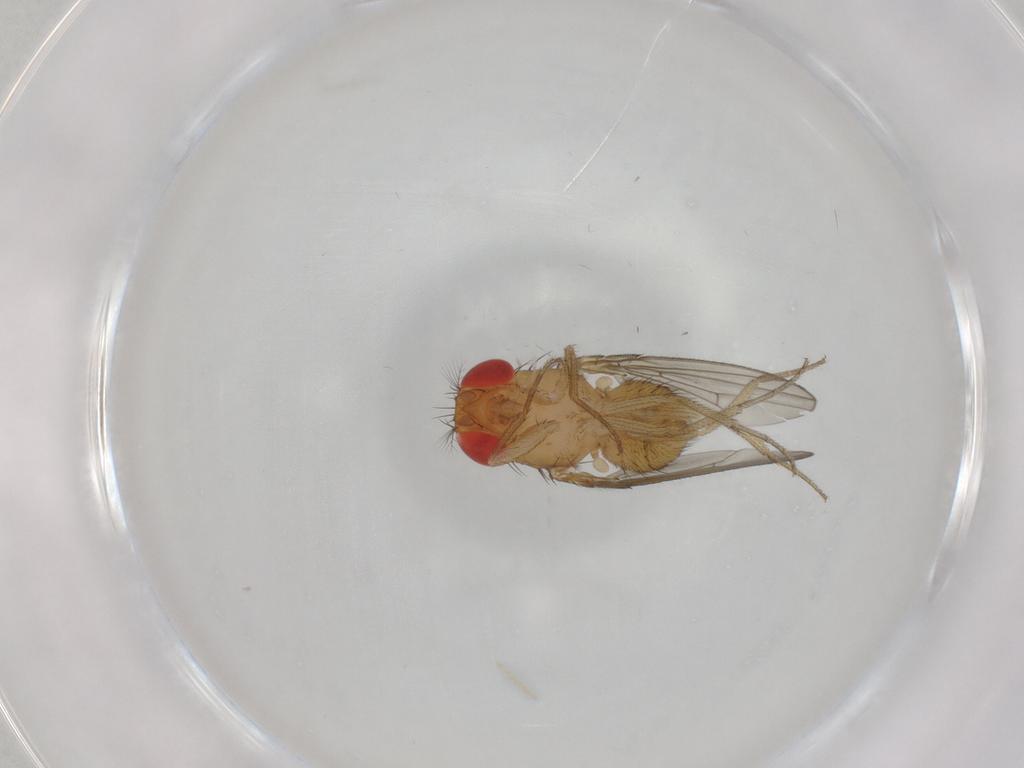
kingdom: Animalia
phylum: Arthropoda
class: Insecta
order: Diptera
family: Drosophilidae
